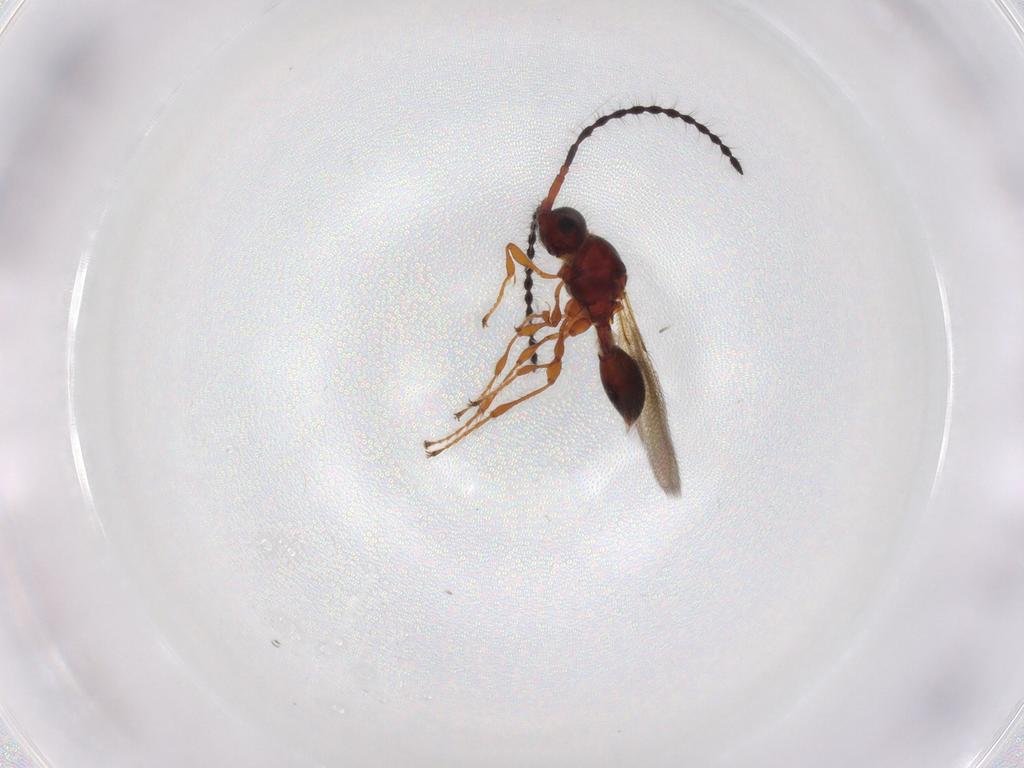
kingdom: Animalia
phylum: Arthropoda
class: Insecta
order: Hymenoptera
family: Diapriidae
